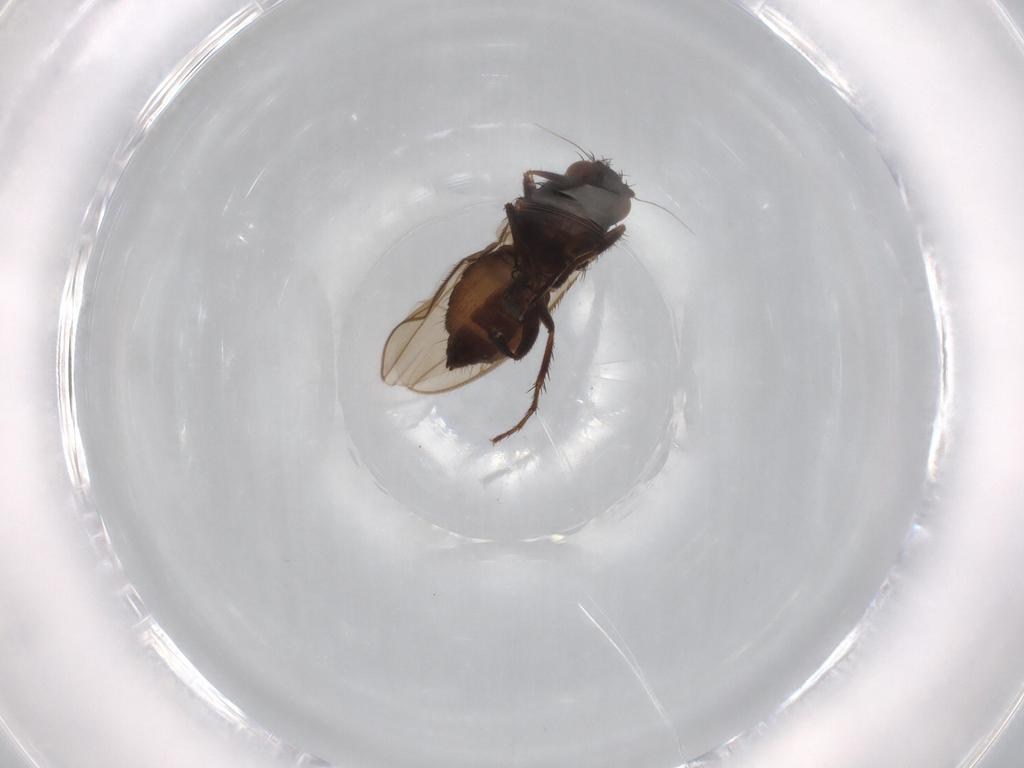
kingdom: Animalia
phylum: Arthropoda
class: Insecta
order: Diptera
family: Sphaeroceridae
